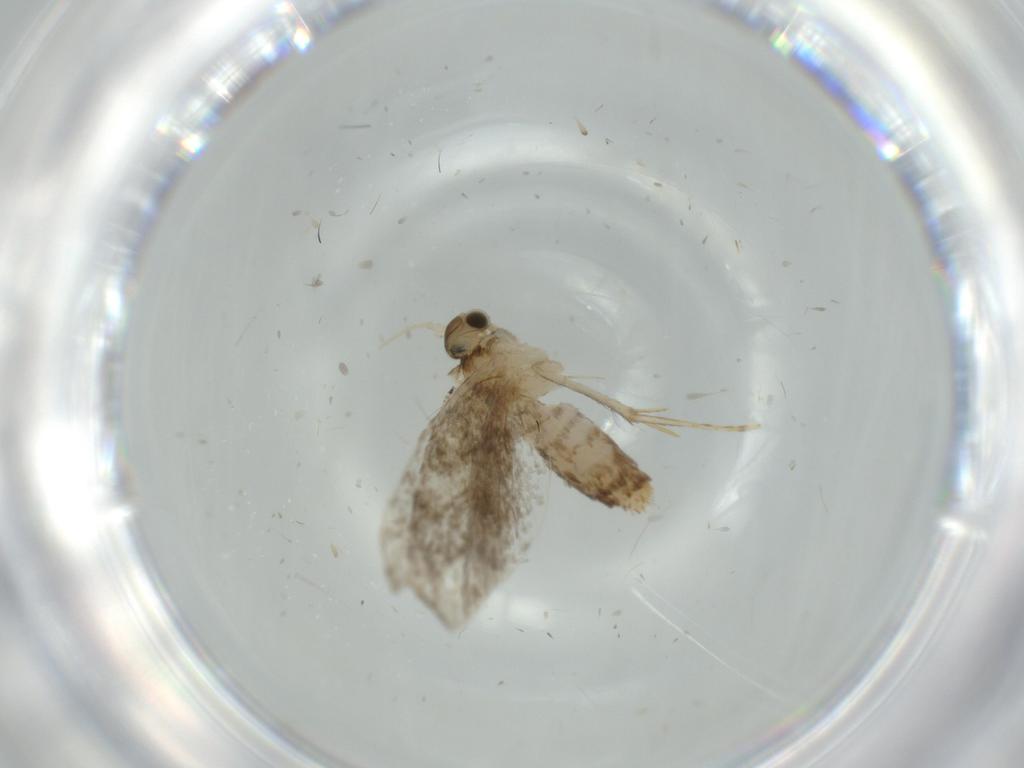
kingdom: Animalia
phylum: Arthropoda
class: Insecta
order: Lepidoptera
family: Tineidae
